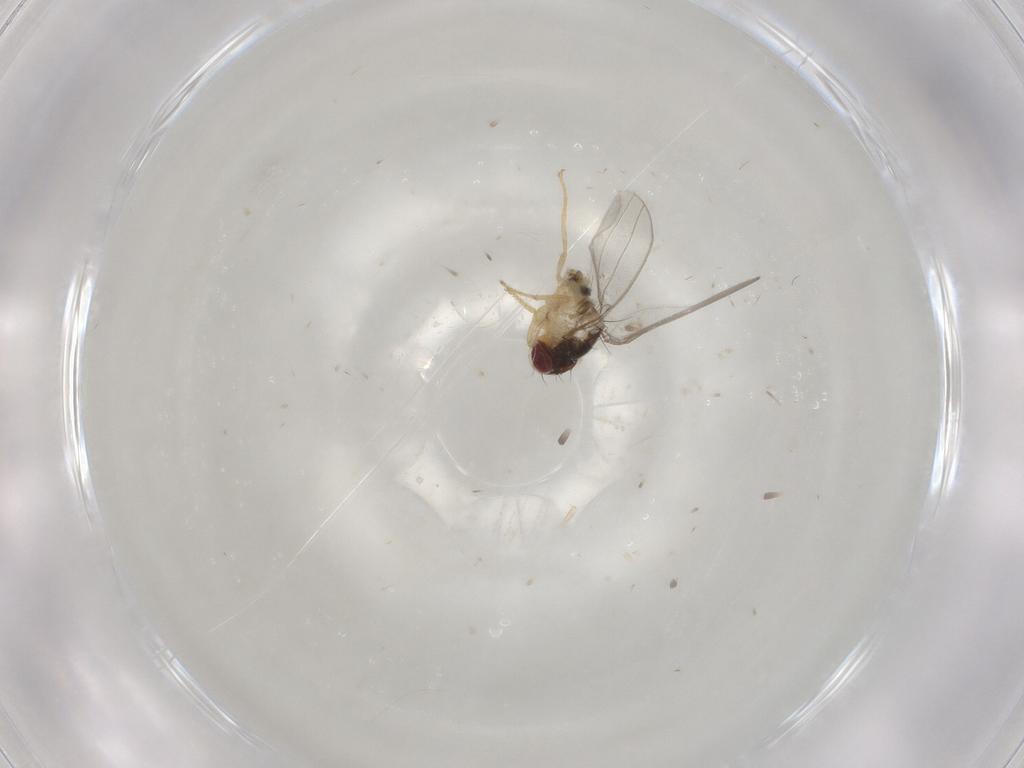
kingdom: Animalia
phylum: Arthropoda
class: Insecta
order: Diptera
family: Asteiidae
